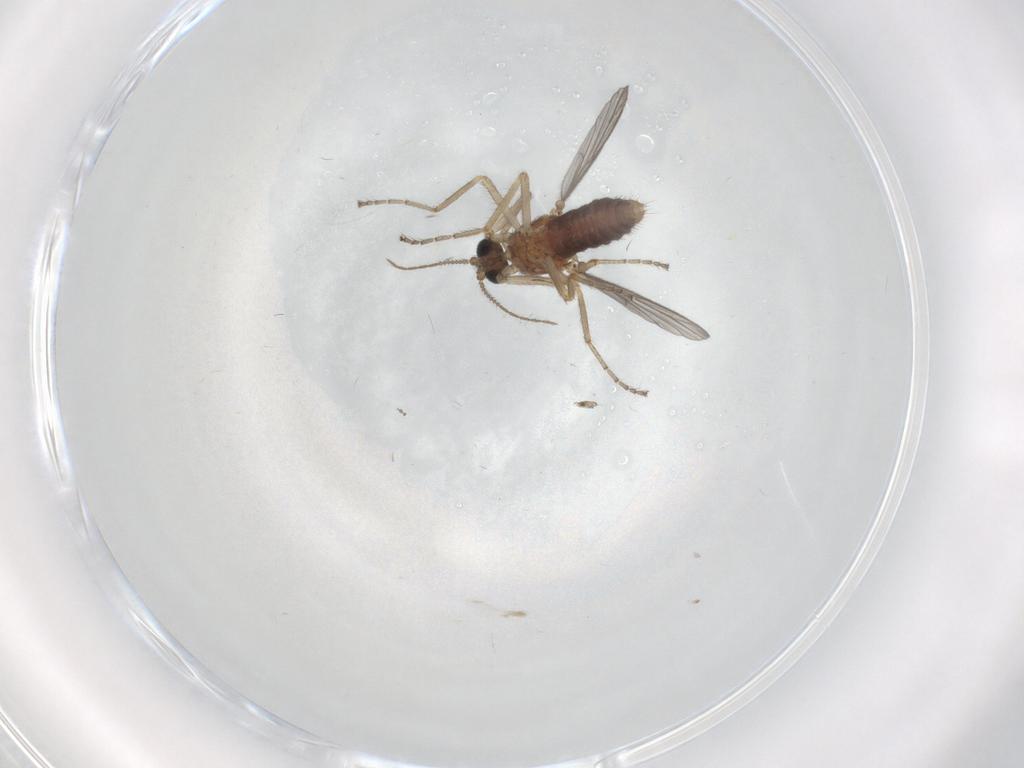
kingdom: Animalia
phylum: Arthropoda
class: Insecta
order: Diptera
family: Ceratopogonidae
